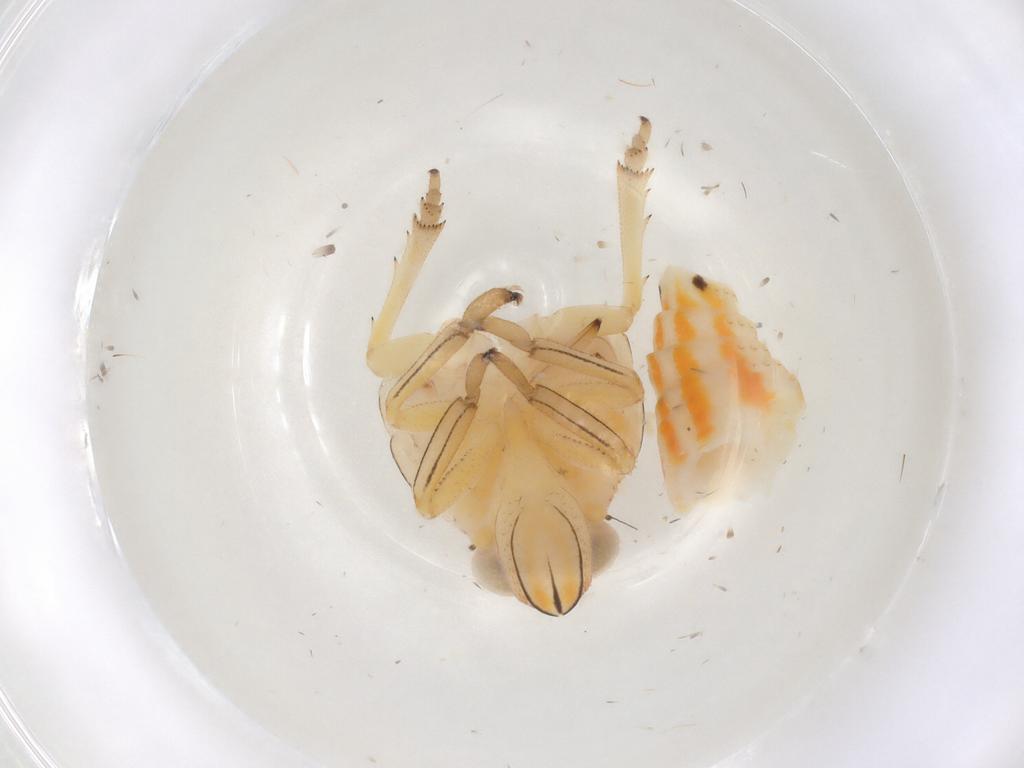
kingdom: Animalia
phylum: Arthropoda
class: Insecta
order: Hemiptera
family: Issidae
